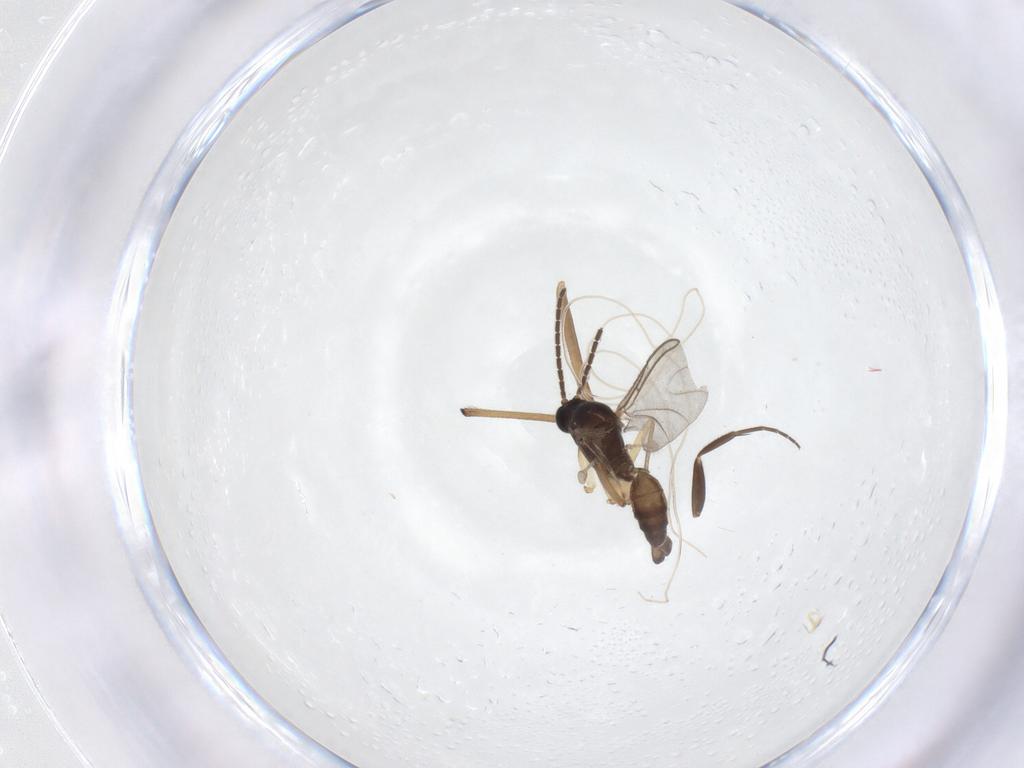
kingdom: Animalia
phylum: Arthropoda
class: Insecta
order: Diptera
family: Sciaridae
